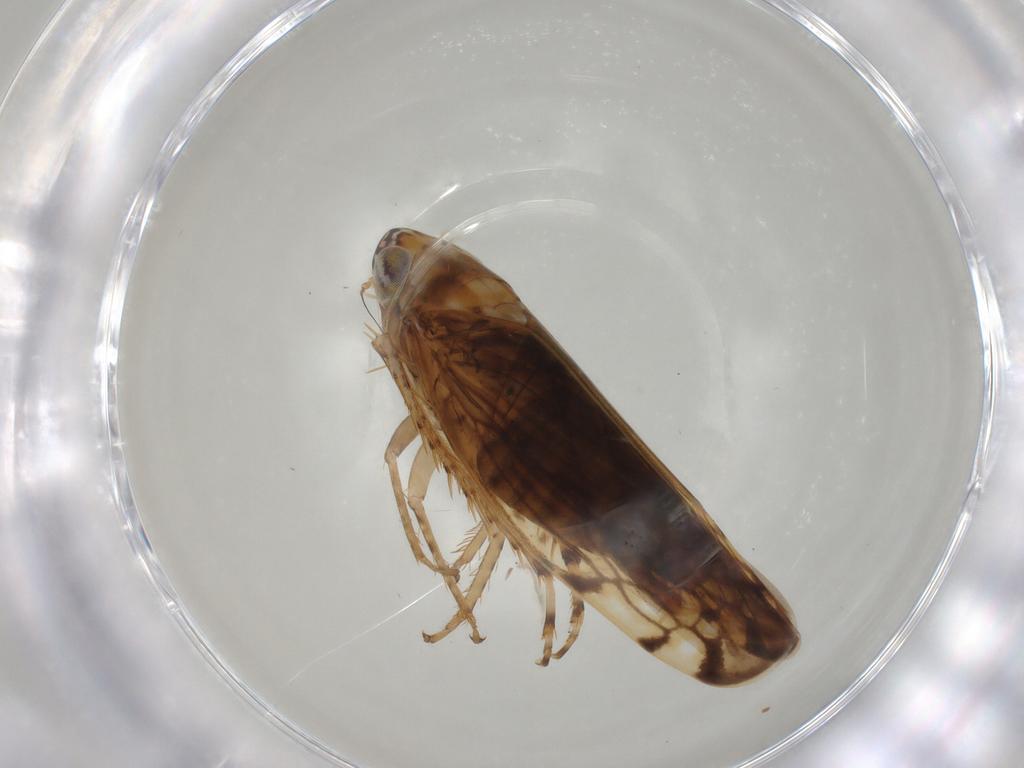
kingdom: Animalia
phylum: Arthropoda
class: Insecta
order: Hemiptera
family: Cicadellidae
